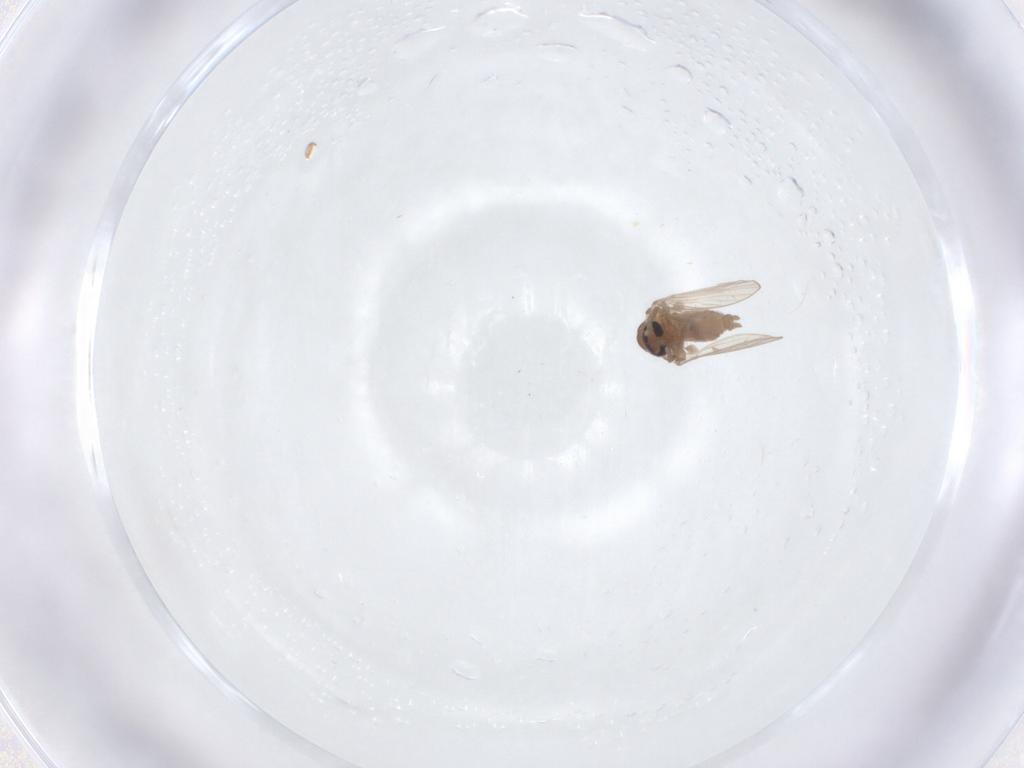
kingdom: Animalia
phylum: Arthropoda
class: Insecta
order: Diptera
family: Psychodidae
